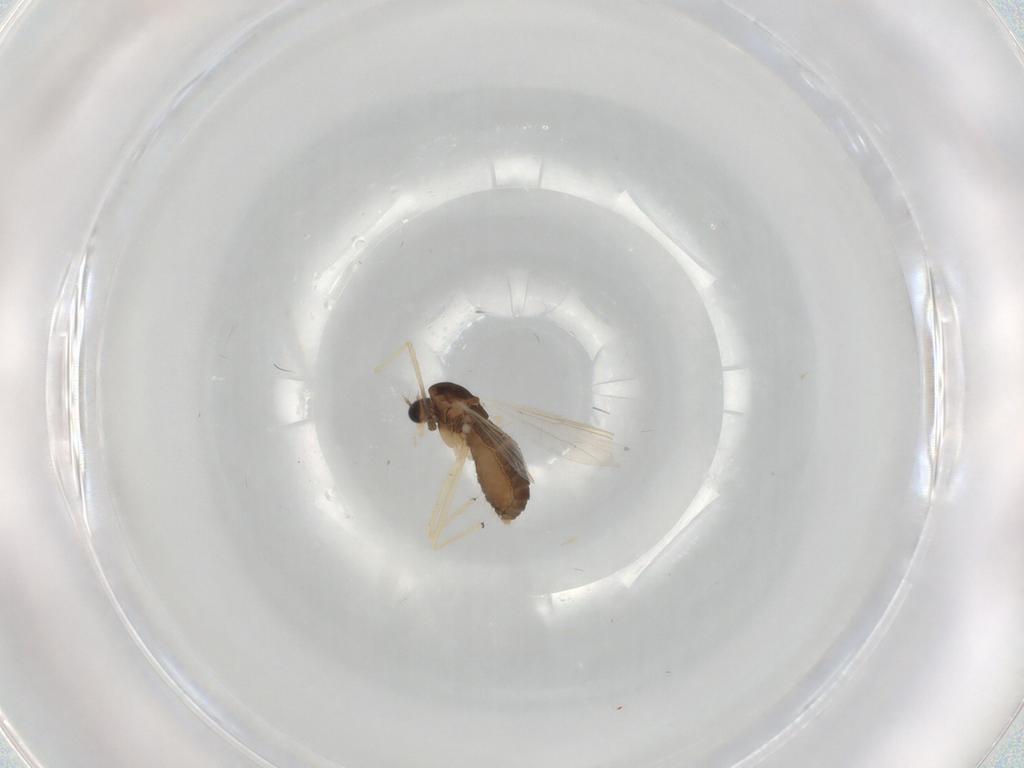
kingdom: Animalia
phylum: Arthropoda
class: Insecta
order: Diptera
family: Chironomidae
